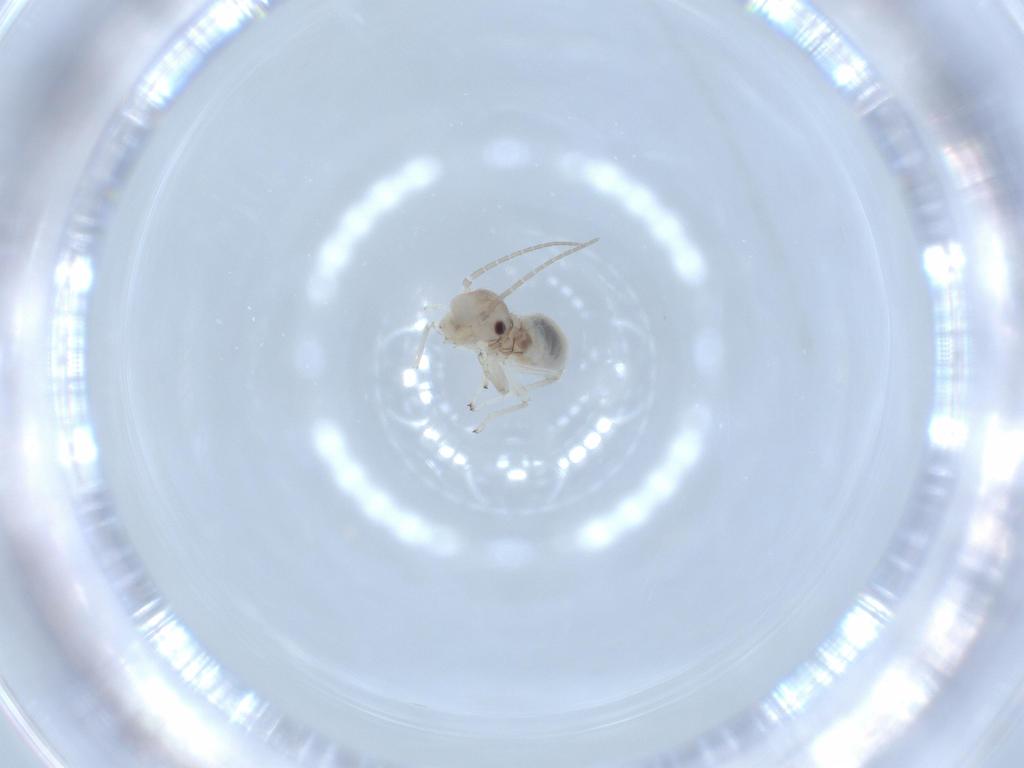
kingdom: Animalia
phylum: Arthropoda
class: Insecta
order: Psocodea
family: Amphipsocidae
